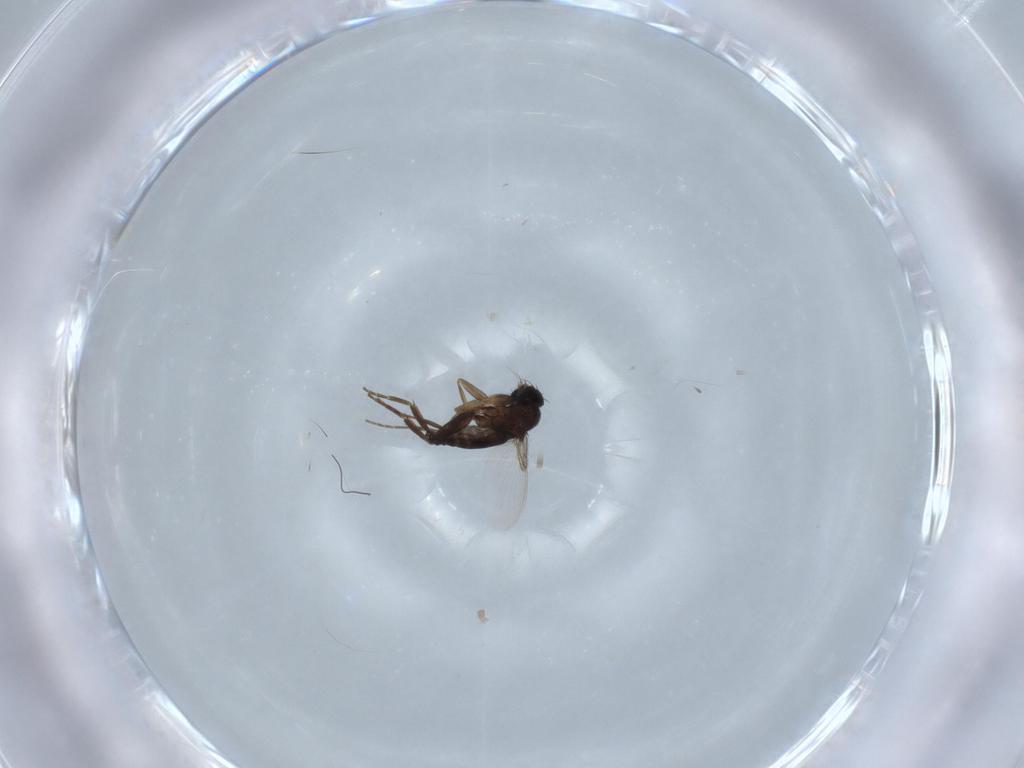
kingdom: Animalia
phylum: Arthropoda
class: Insecta
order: Diptera
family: Phoridae
